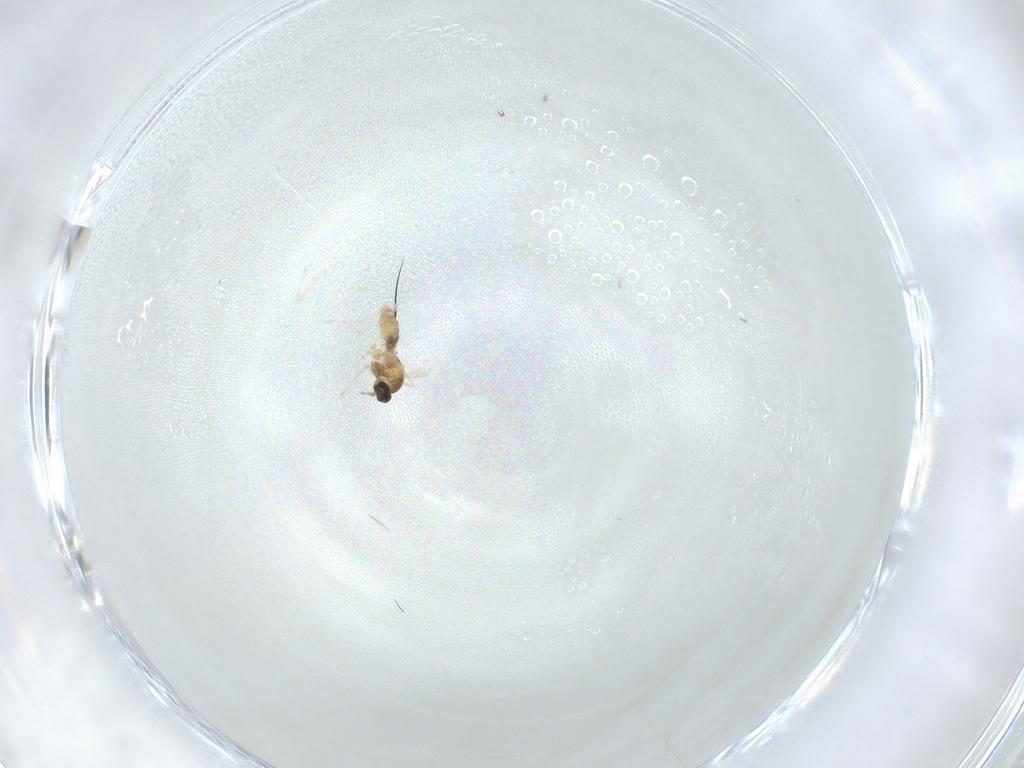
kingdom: Animalia
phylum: Arthropoda
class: Insecta
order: Diptera
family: Cecidomyiidae
